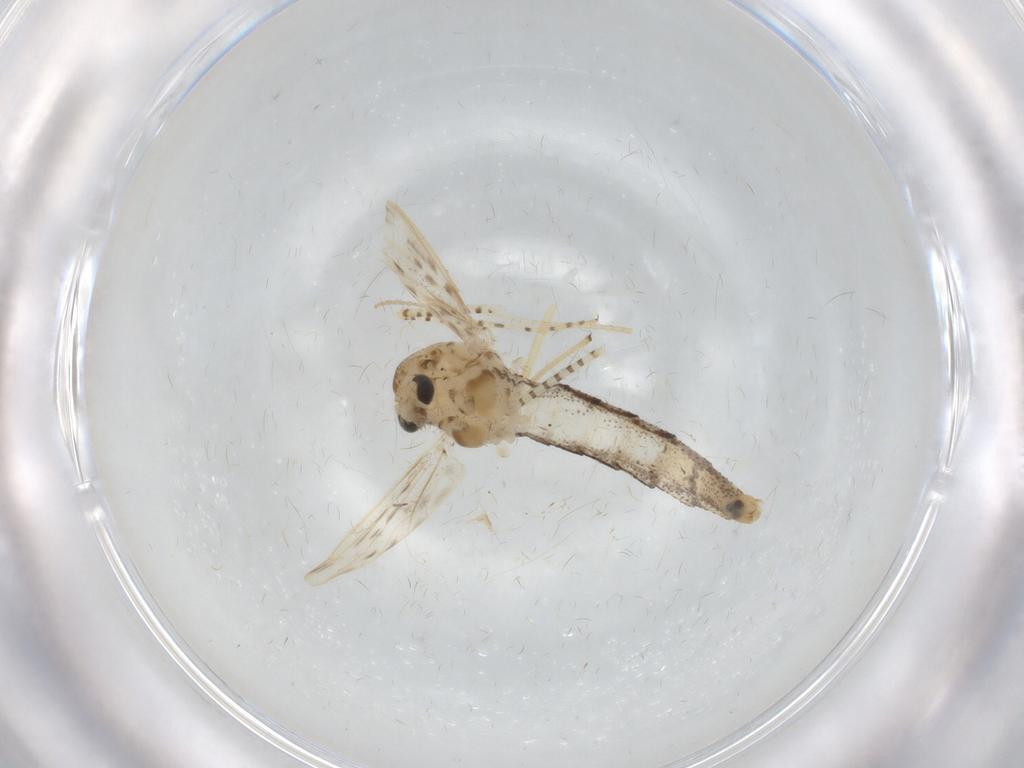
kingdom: Animalia
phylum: Arthropoda
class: Insecta
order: Diptera
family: Chaoboridae
